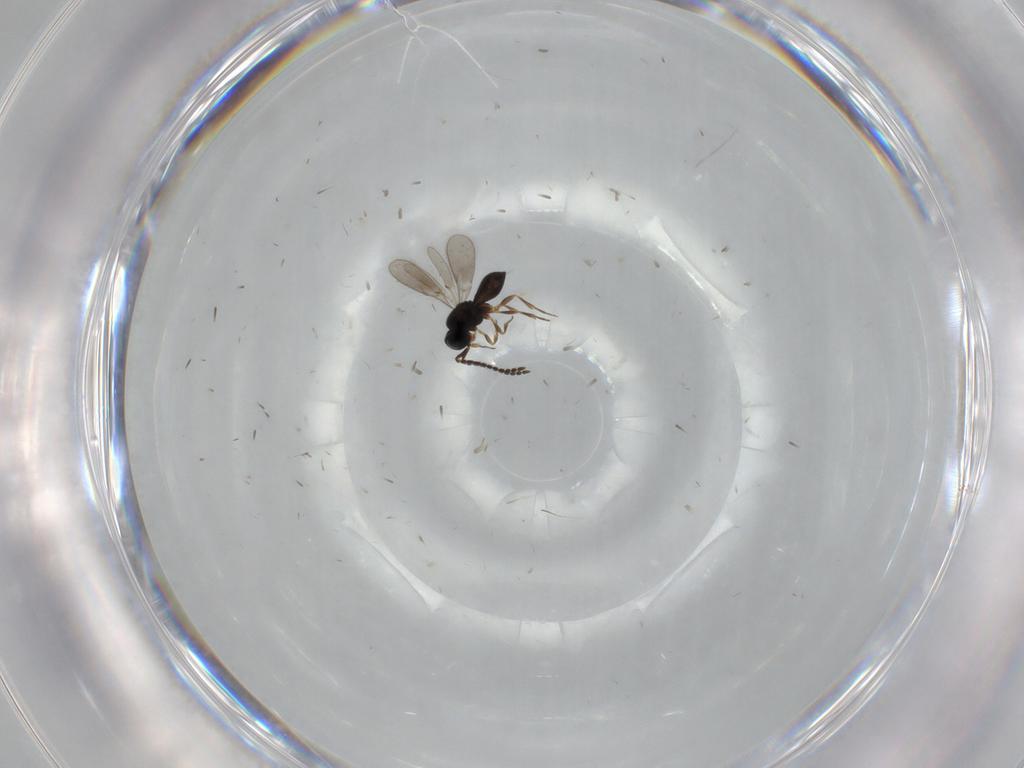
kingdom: Animalia
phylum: Arthropoda
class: Insecta
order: Hymenoptera
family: Scelionidae
